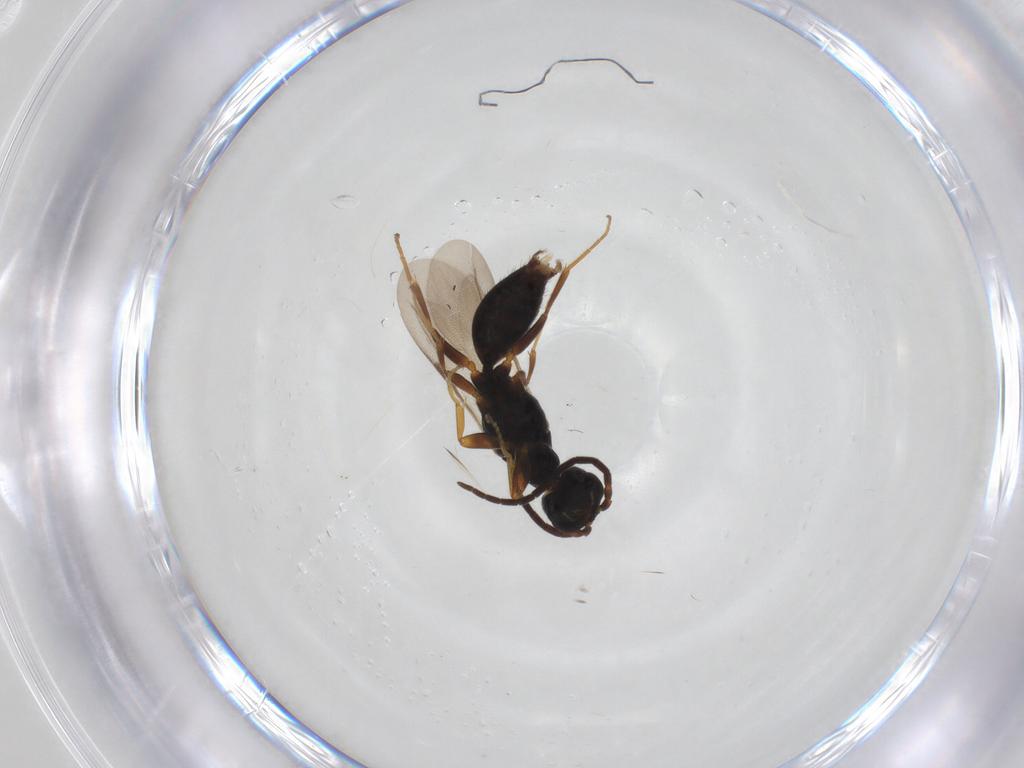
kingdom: Animalia
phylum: Arthropoda
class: Insecta
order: Hymenoptera
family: Bethylidae
